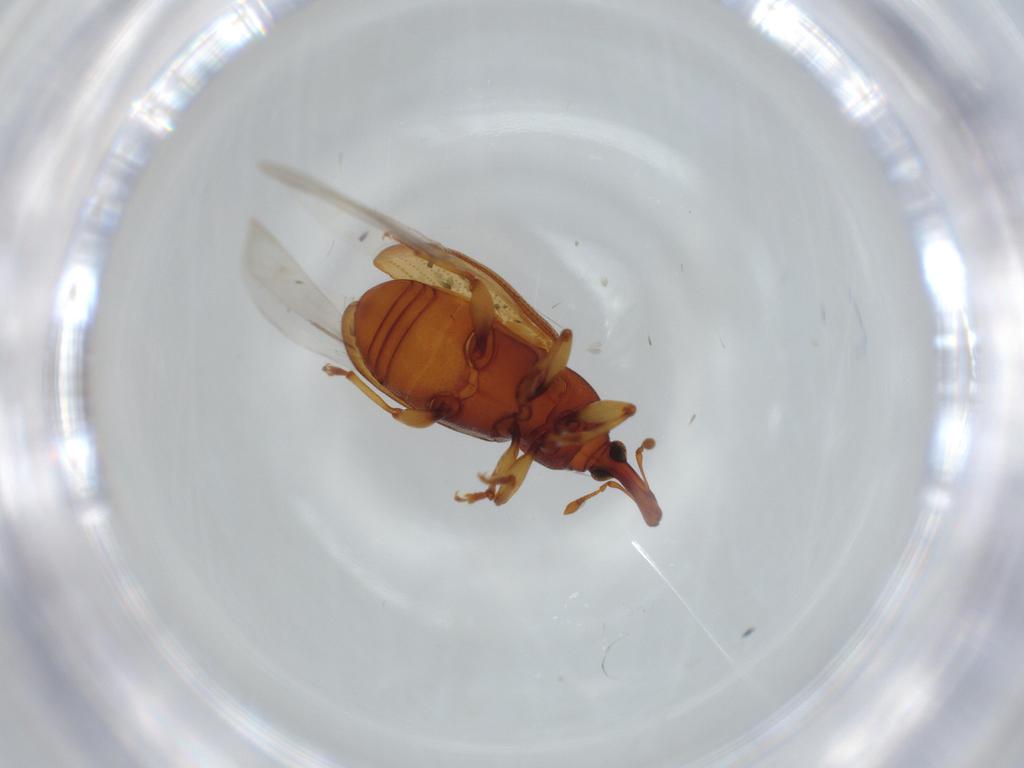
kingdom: Animalia
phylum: Arthropoda
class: Insecta
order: Coleoptera
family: Curculionidae
